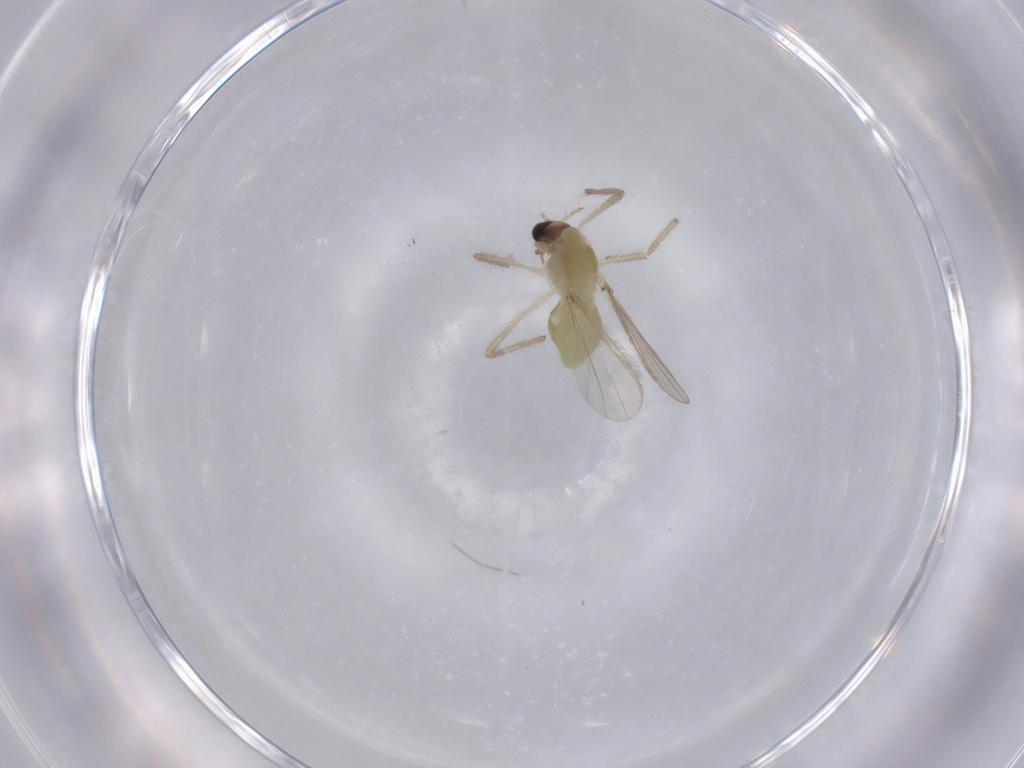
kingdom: Animalia
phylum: Arthropoda
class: Insecta
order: Diptera
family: Chironomidae
